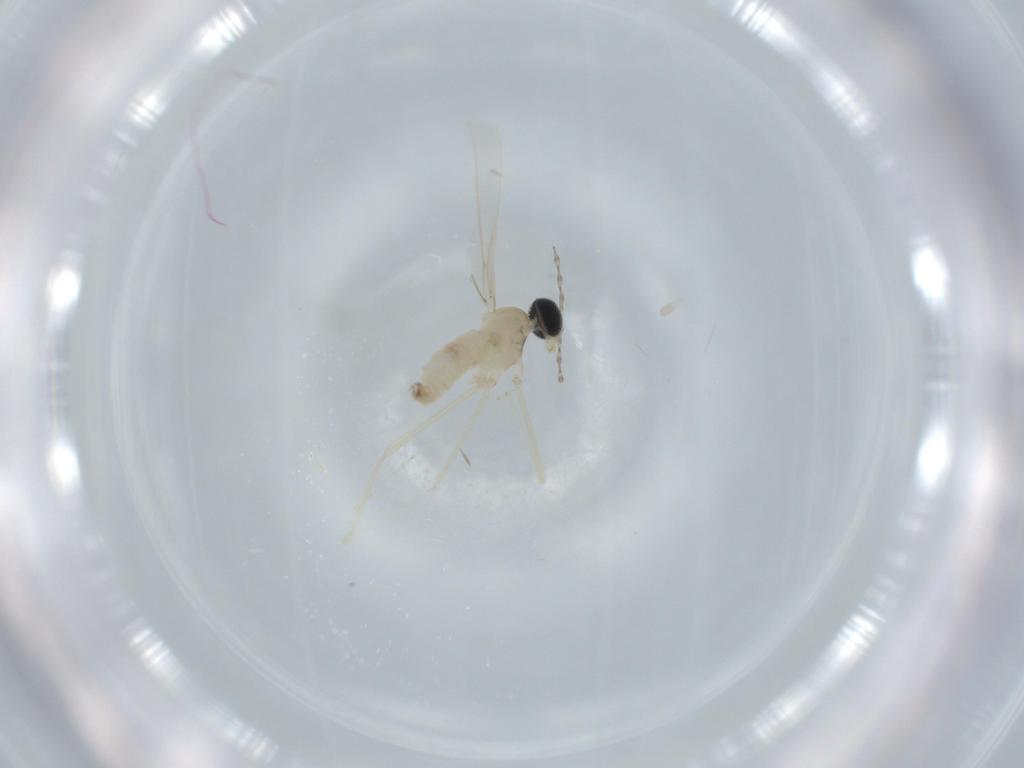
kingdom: Animalia
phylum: Arthropoda
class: Insecta
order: Diptera
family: Cecidomyiidae
